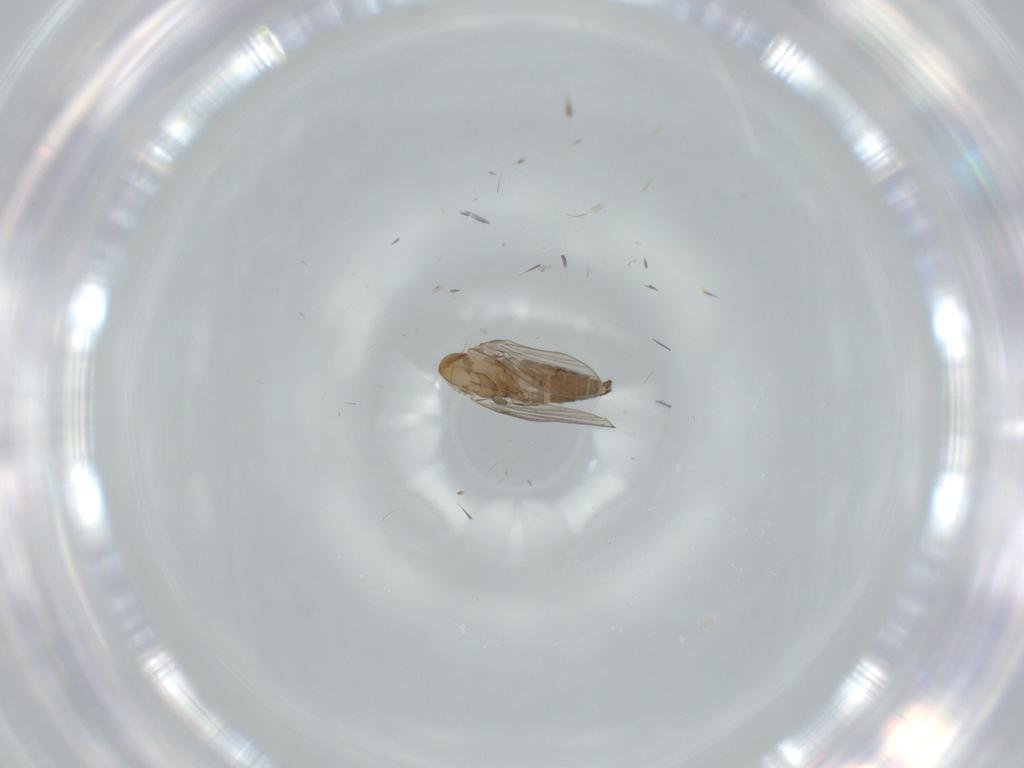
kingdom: Animalia
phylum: Arthropoda
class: Insecta
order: Diptera
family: Psychodidae
